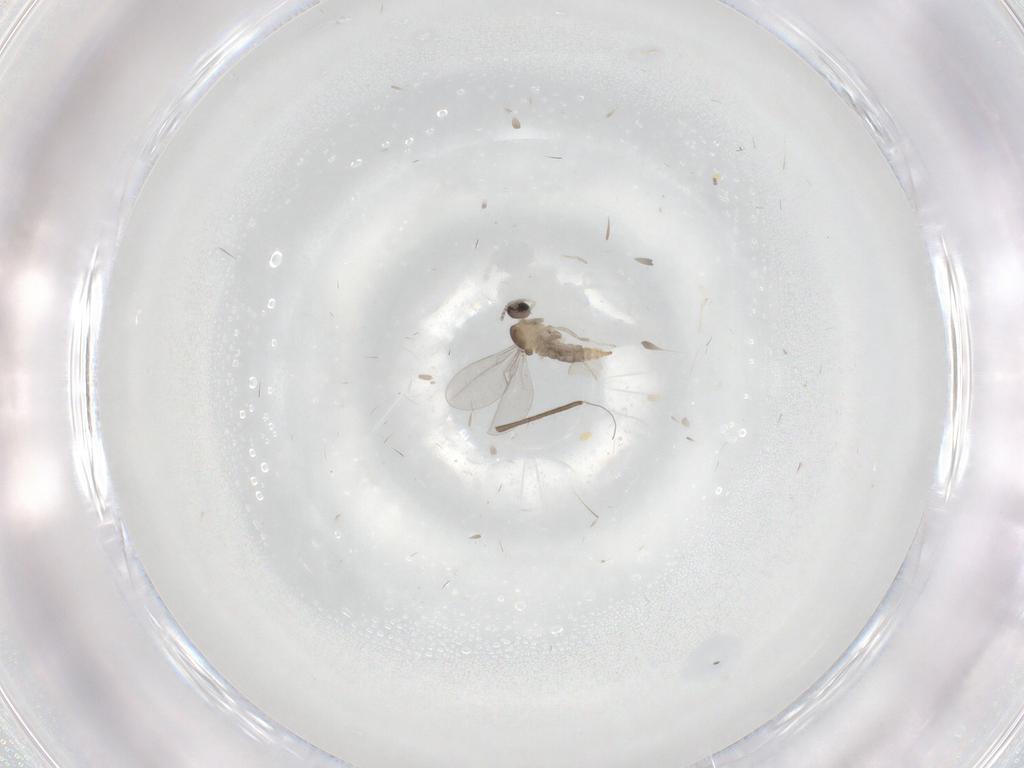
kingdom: Animalia
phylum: Arthropoda
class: Insecta
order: Diptera
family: Cecidomyiidae
